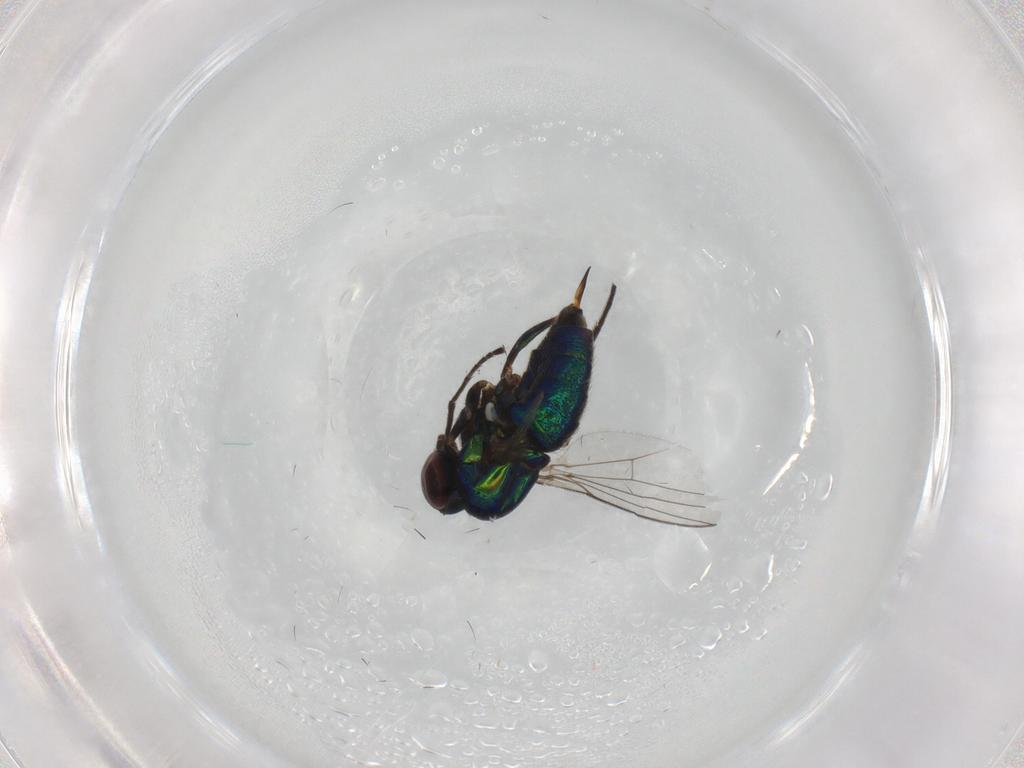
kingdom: Animalia
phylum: Arthropoda
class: Insecta
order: Diptera
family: Dolichopodidae
